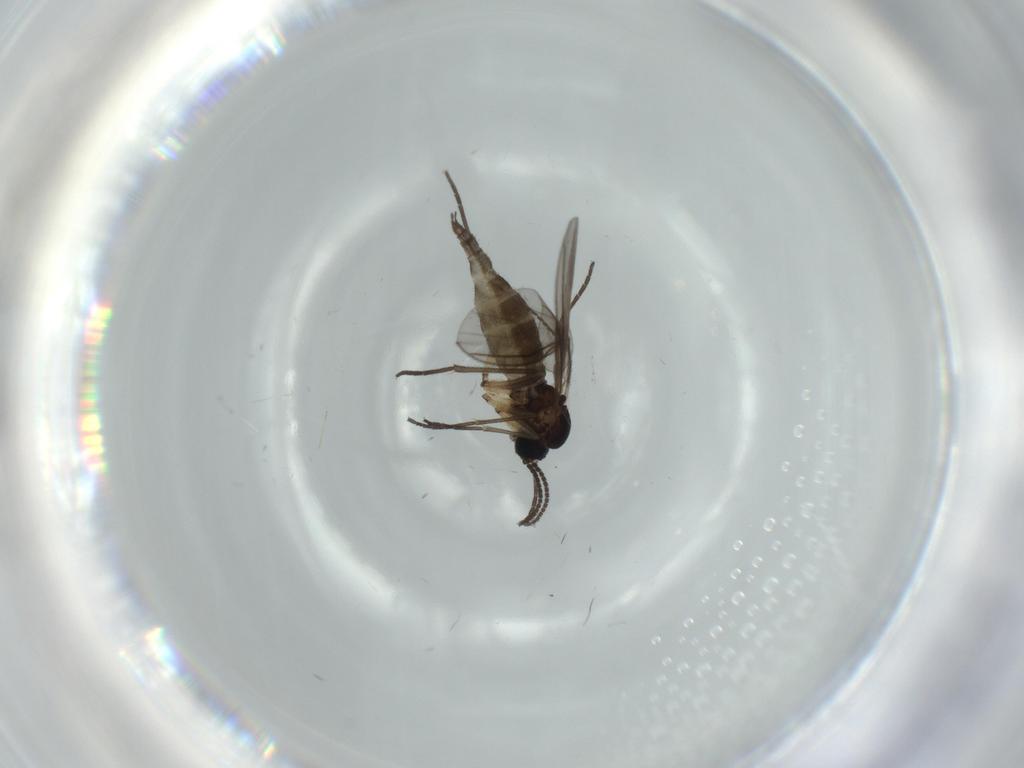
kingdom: Animalia
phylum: Arthropoda
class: Insecta
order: Diptera
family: Sciaridae
